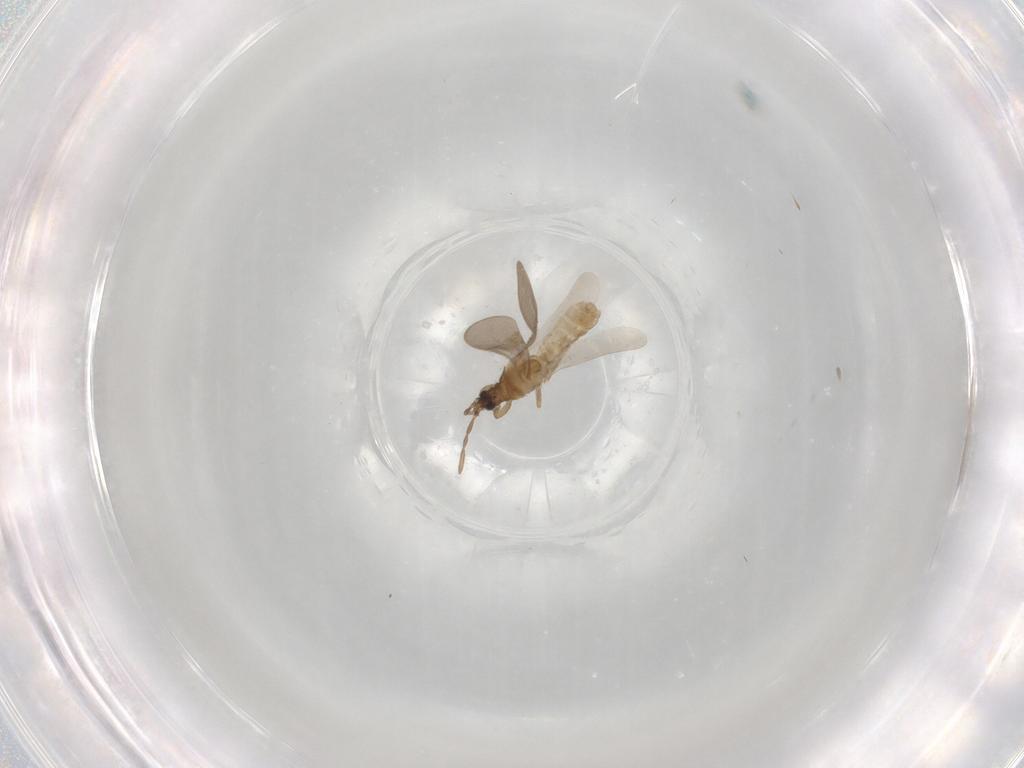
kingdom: Animalia
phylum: Arthropoda
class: Insecta
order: Hemiptera
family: Enicocephalidae
